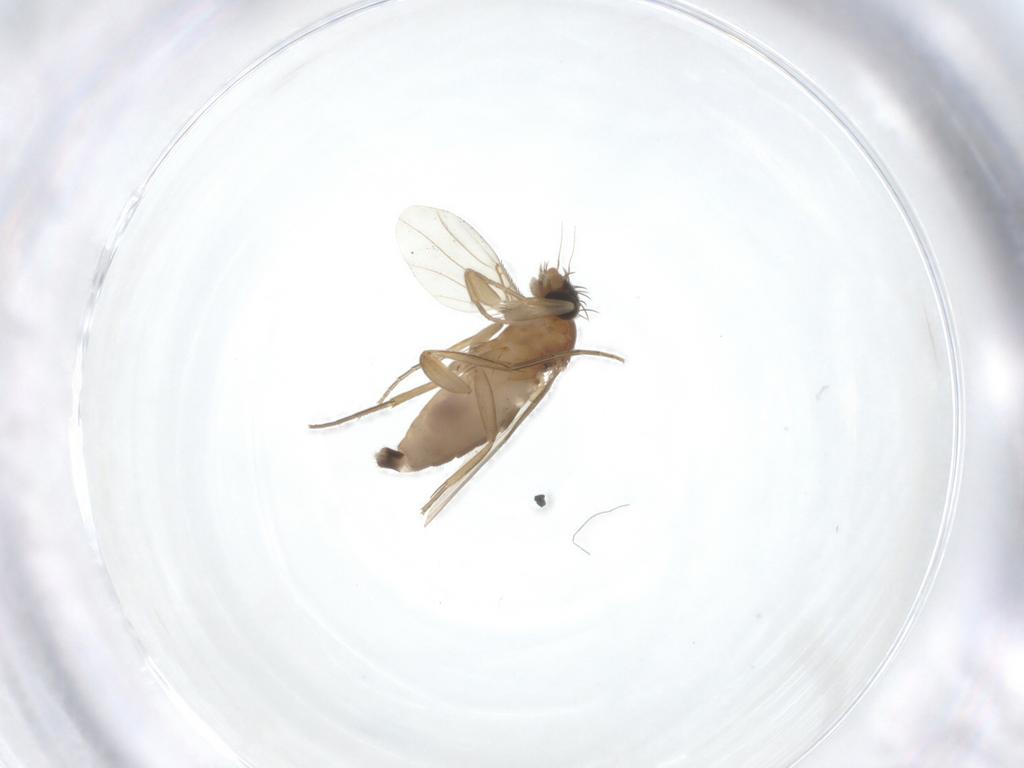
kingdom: Animalia
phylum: Arthropoda
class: Insecta
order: Diptera
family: Phoridae
